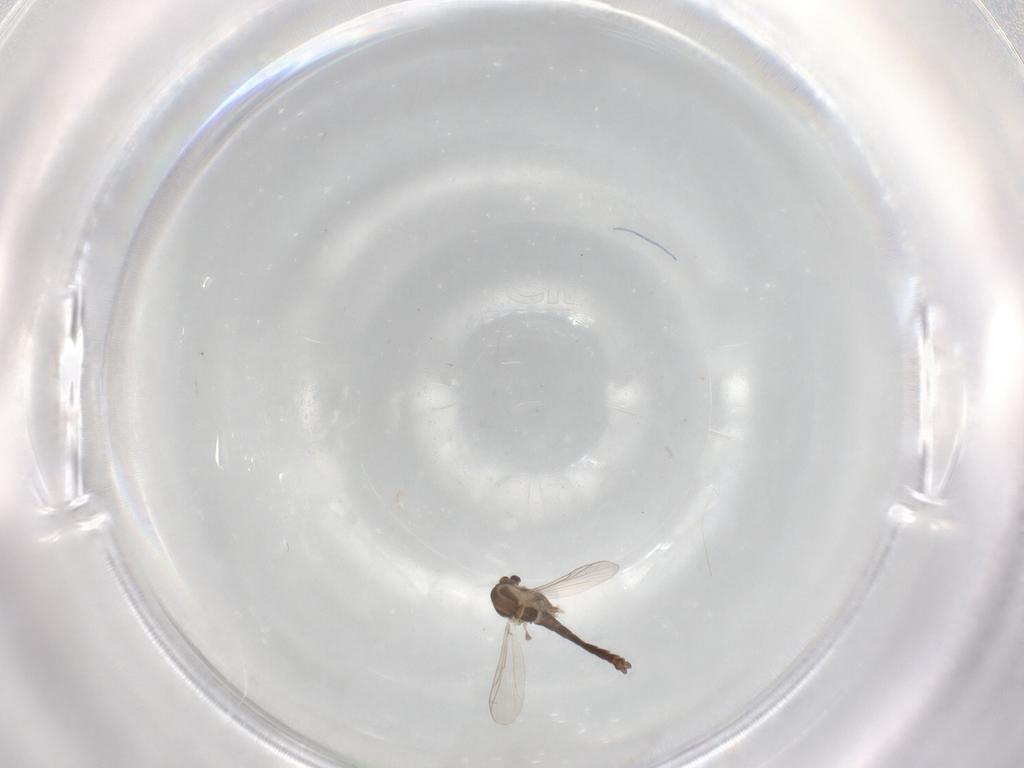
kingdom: Animalia
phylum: Arthropoda
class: Insecta
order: Diptera
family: Chironomidae
